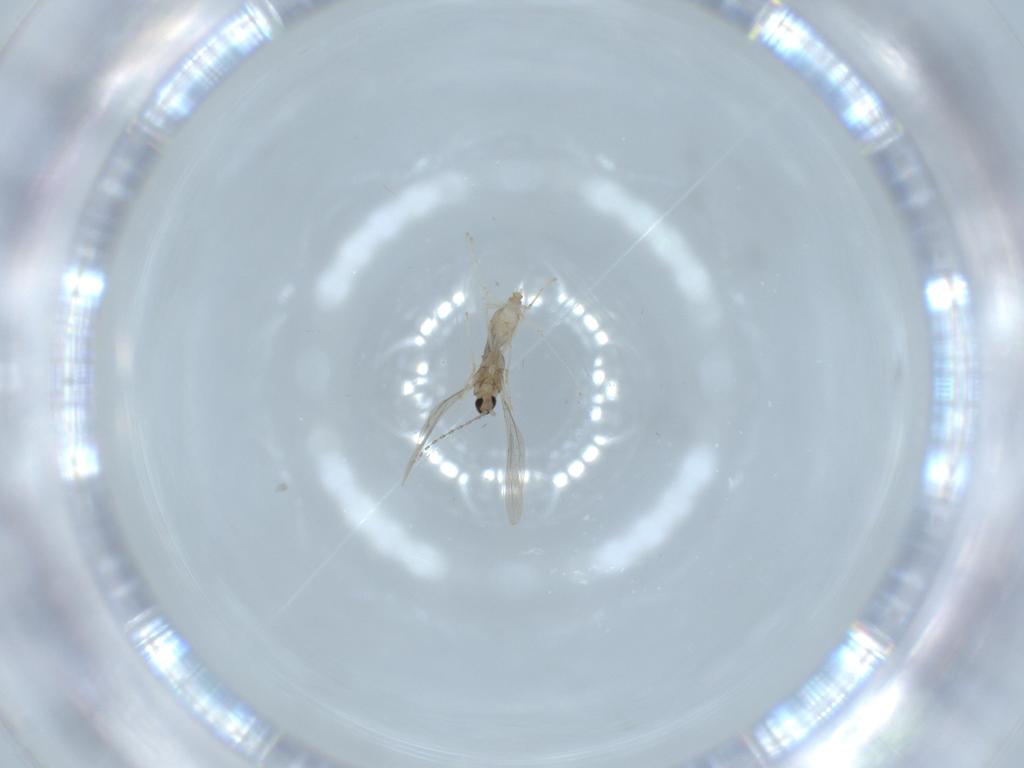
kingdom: Animalia
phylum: Arthropoda
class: Insecta
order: Diptera
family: Cecidomyiidae
